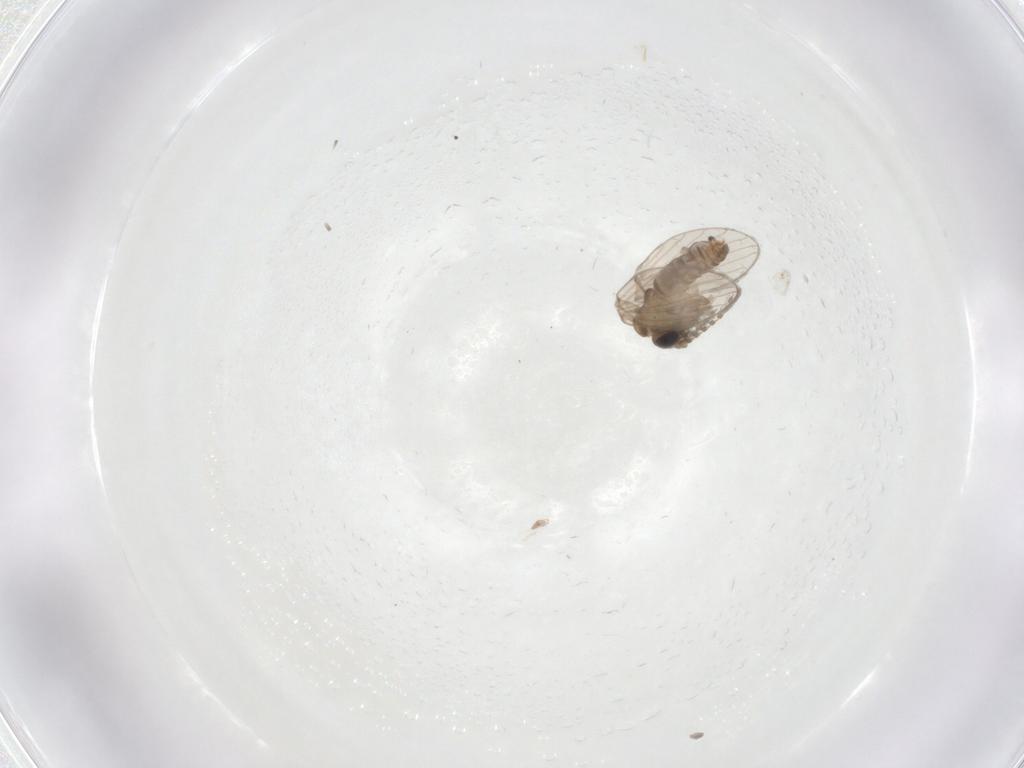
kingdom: Animalia
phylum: Arthropoda
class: Insecta
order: Diptera
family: Psychodidae
